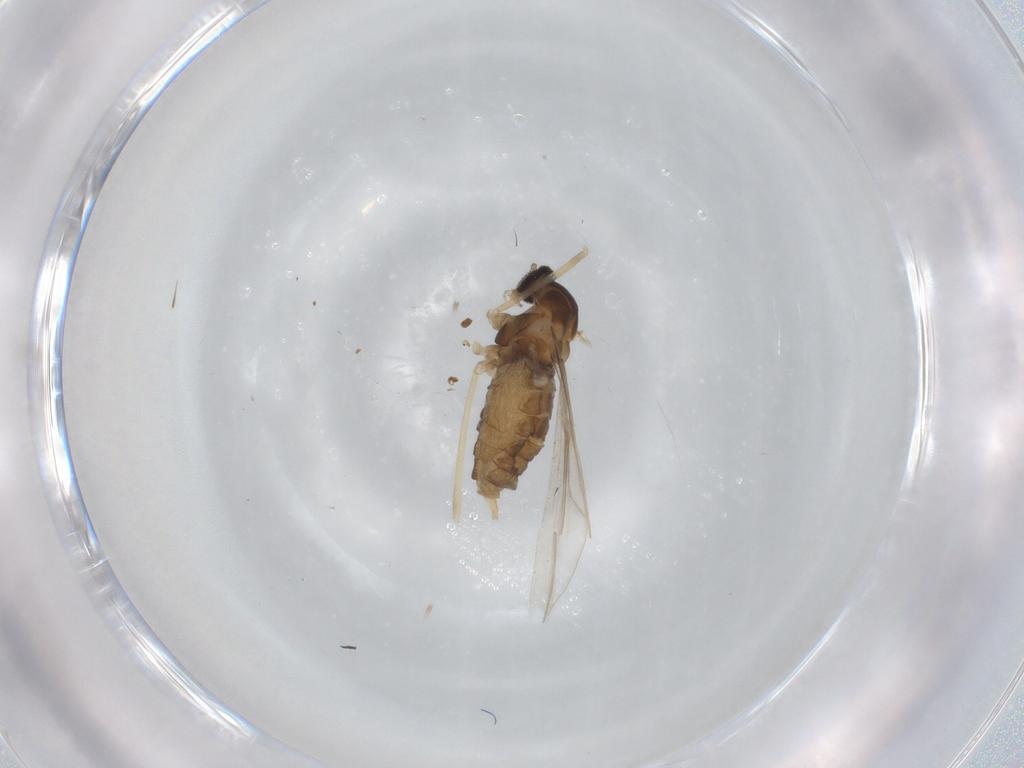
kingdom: Animalia
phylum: Arthropoda
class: Insecta
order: Diptera
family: Cecidomyiidae
